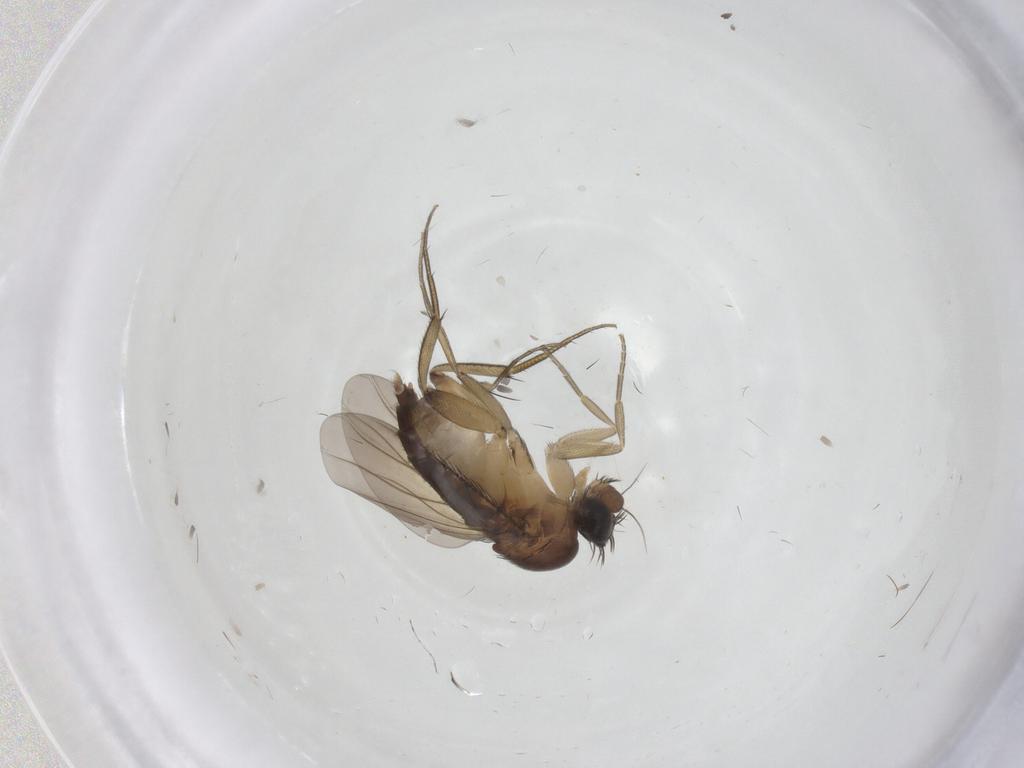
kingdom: Animalia
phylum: Arthropoda
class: Insecta
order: Diptera
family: Phoridae
